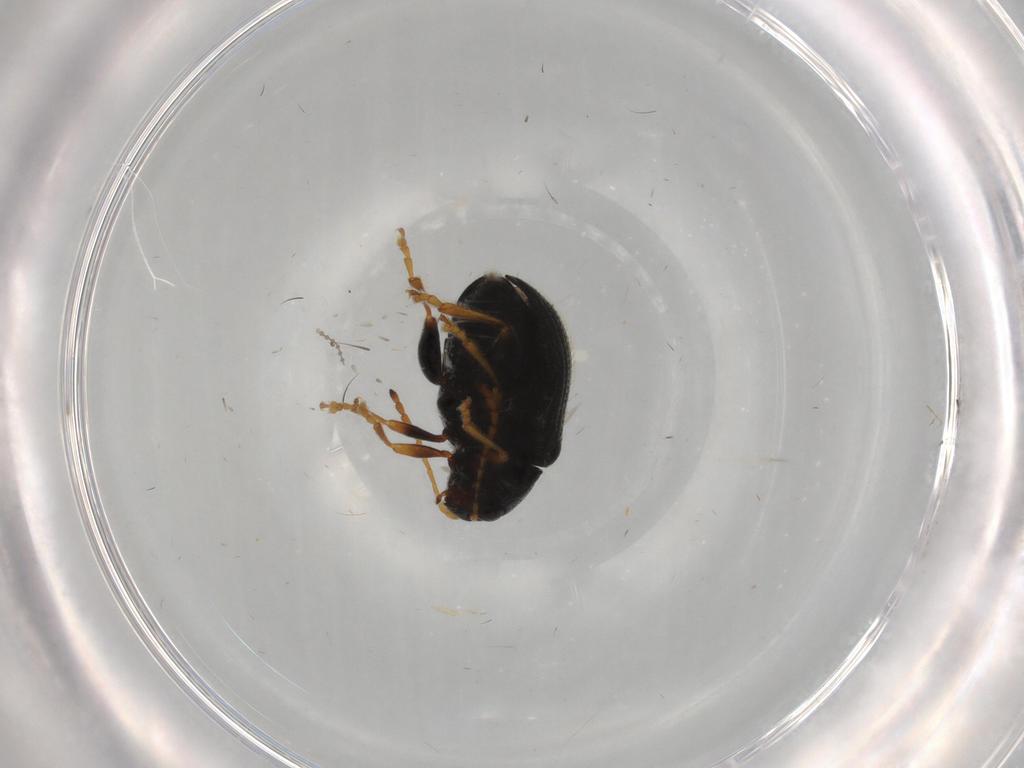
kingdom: Animalia
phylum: Arthropoda
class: Insecta
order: Coleoptera
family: Chrysomelidae
